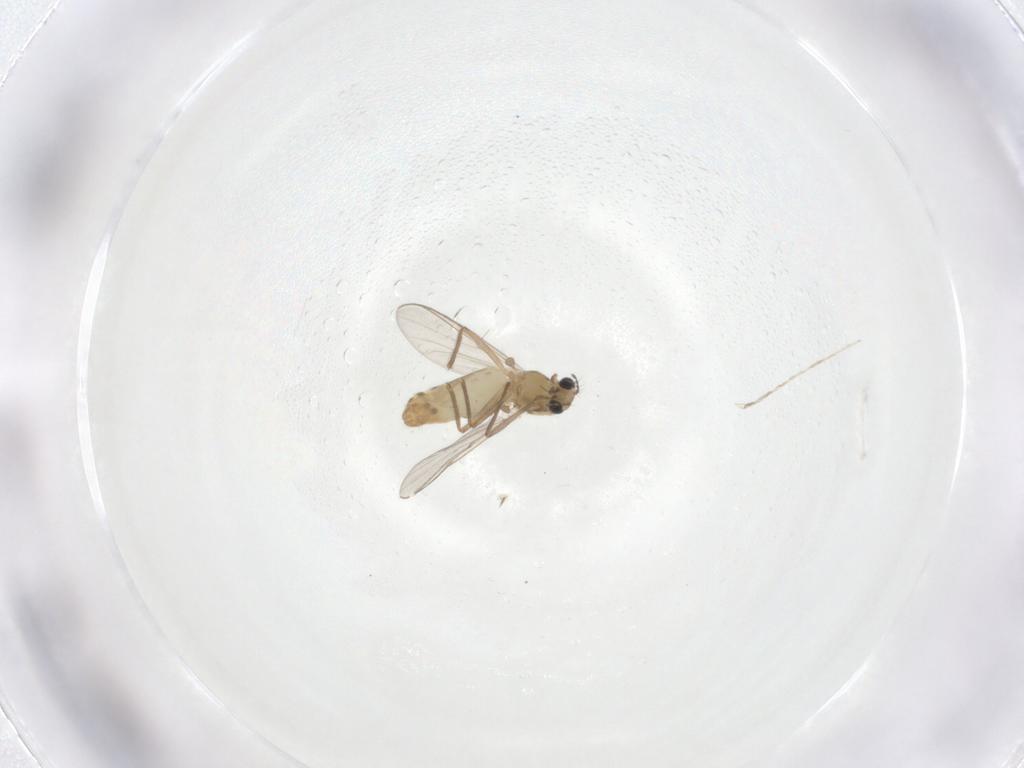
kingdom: Animalia
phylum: Arthropoda
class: Insecta
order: Diptera
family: Chironomidae
